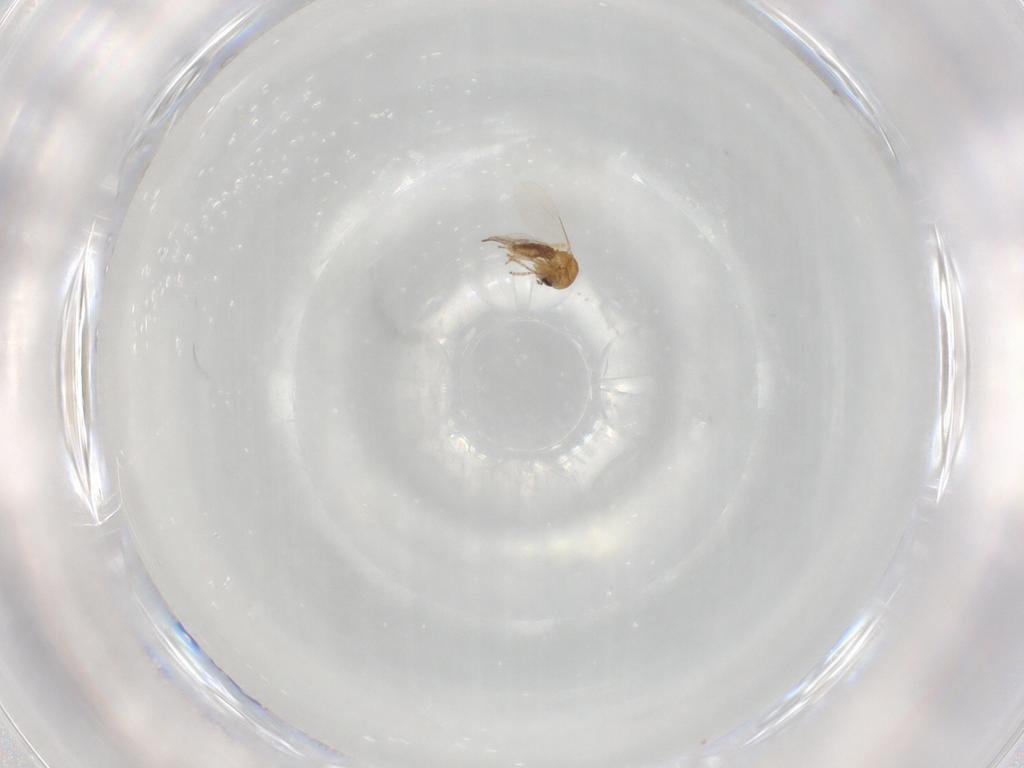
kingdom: Animalia
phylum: Arthropoda
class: Insecta
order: Diptera
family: Ceratopogonidae
